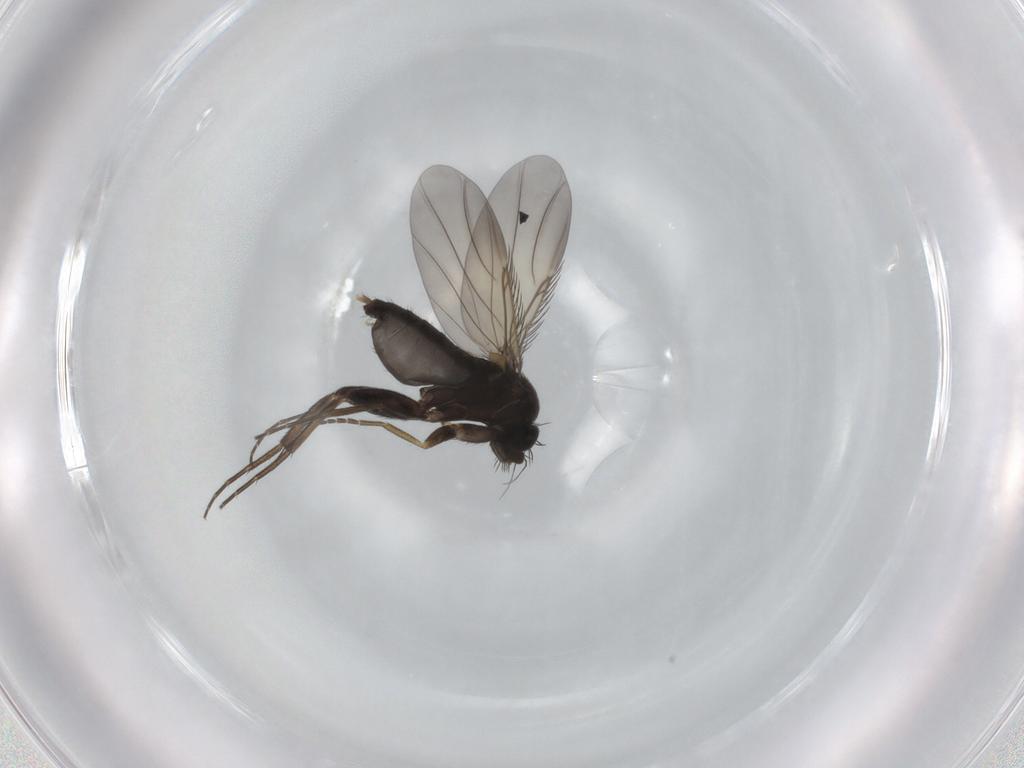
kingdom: Animalia
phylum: Arthropoda
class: Insecta
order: Diptera
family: Phoridae
